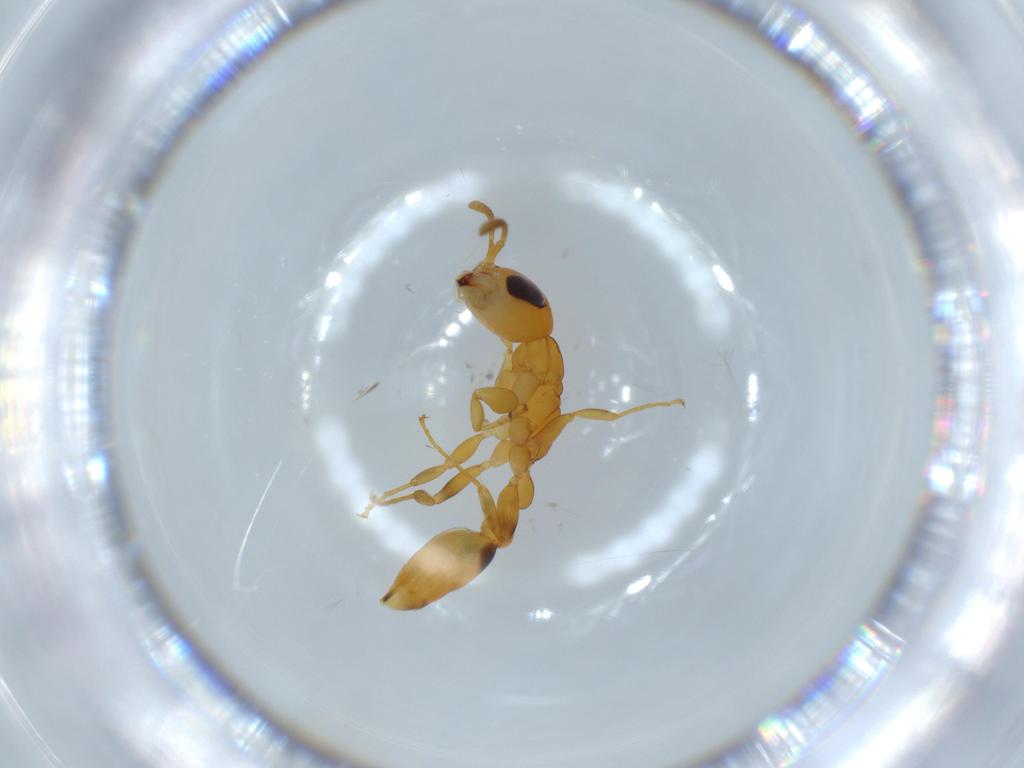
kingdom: Animalia
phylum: Arthropoda
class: Insecta
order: Hymenoptera
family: Formicidae
